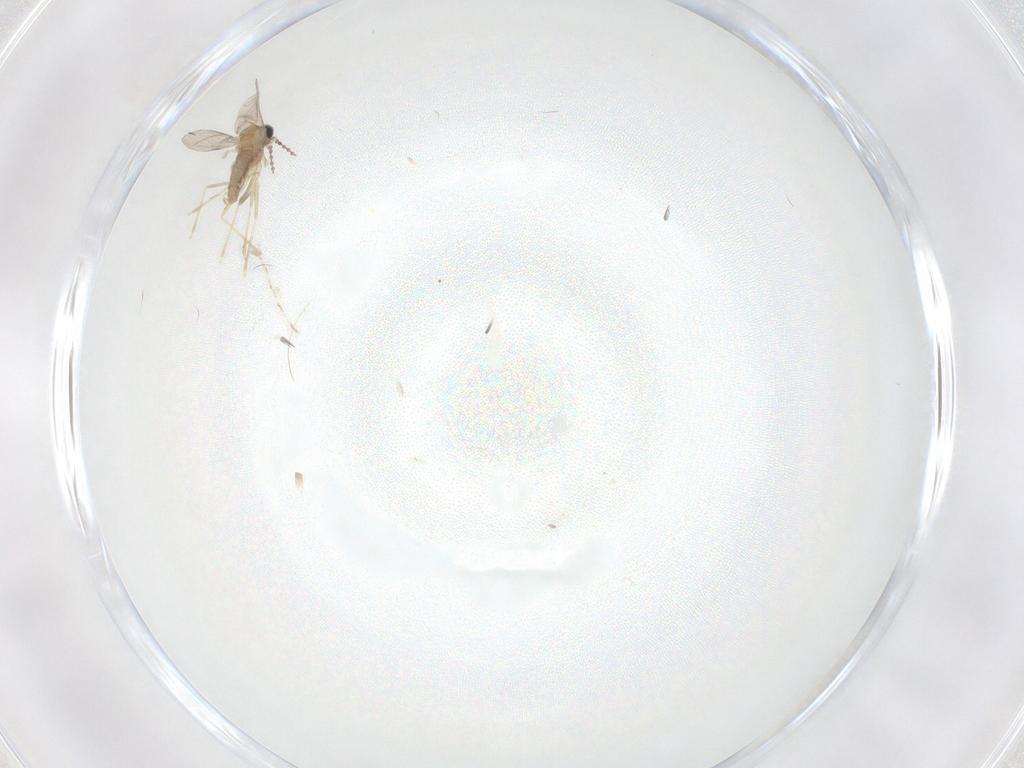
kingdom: Animalia
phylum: Arthropoda
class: Insecta
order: Diptera
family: Cecidomyiidae
